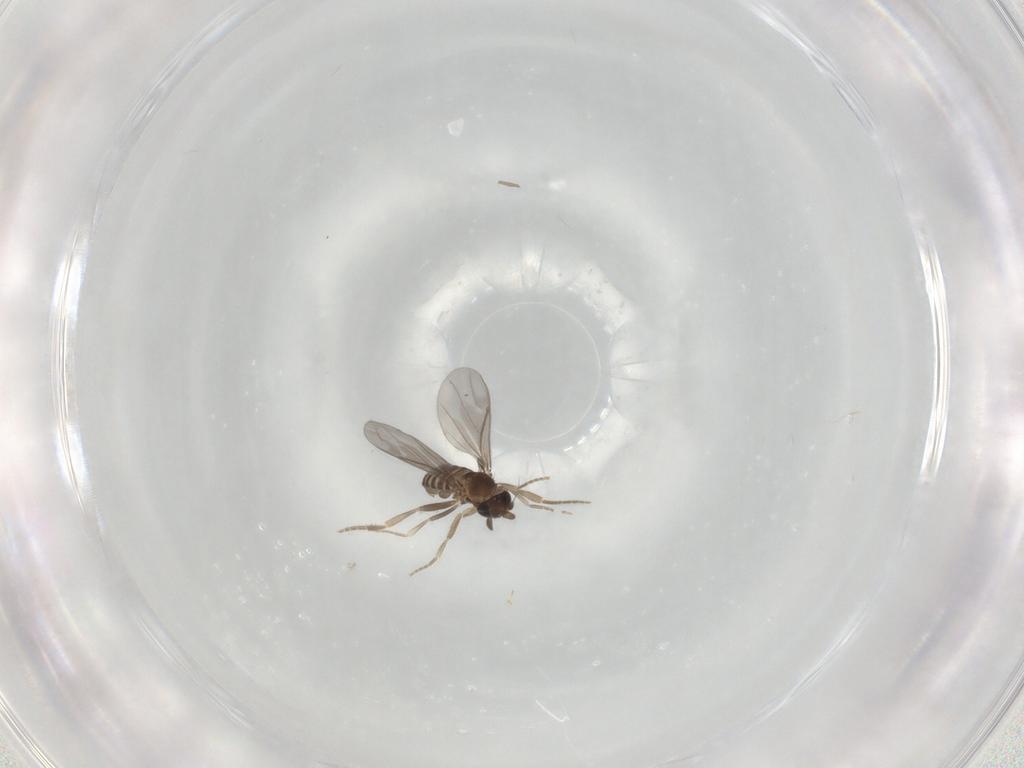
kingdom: Animalia
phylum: Arthropoda
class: Insecta
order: Diptera
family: Chironomidae
